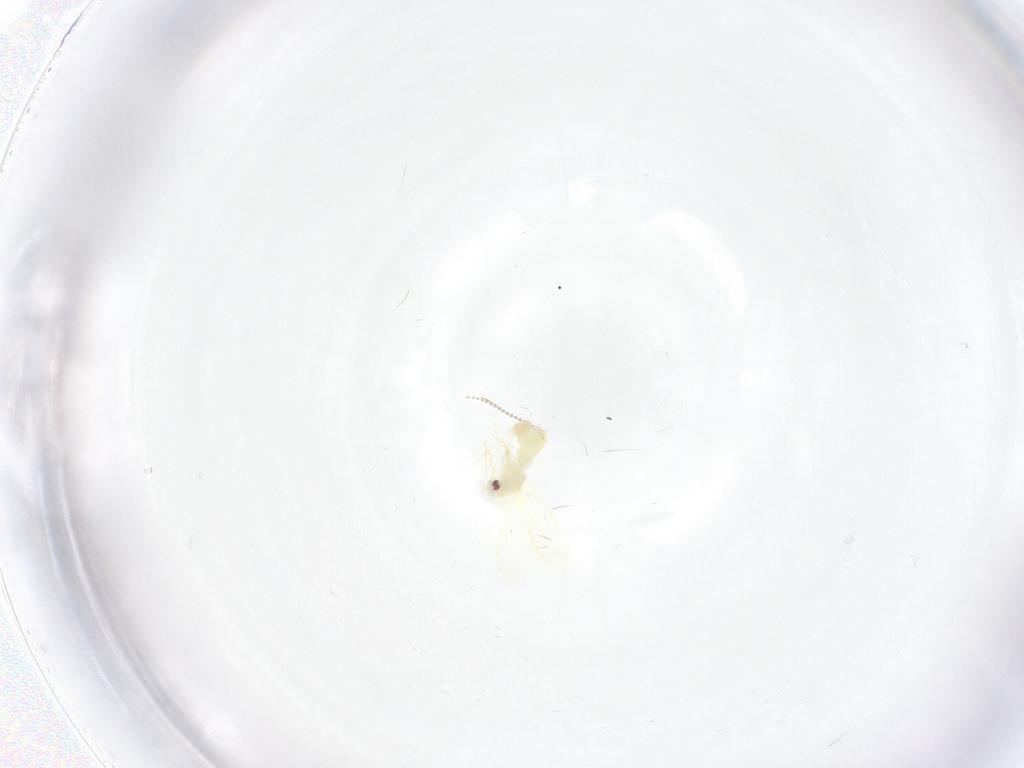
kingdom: Animalia
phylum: Arthropoda
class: Insecta
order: Hemiptera
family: Aleyrodidae
